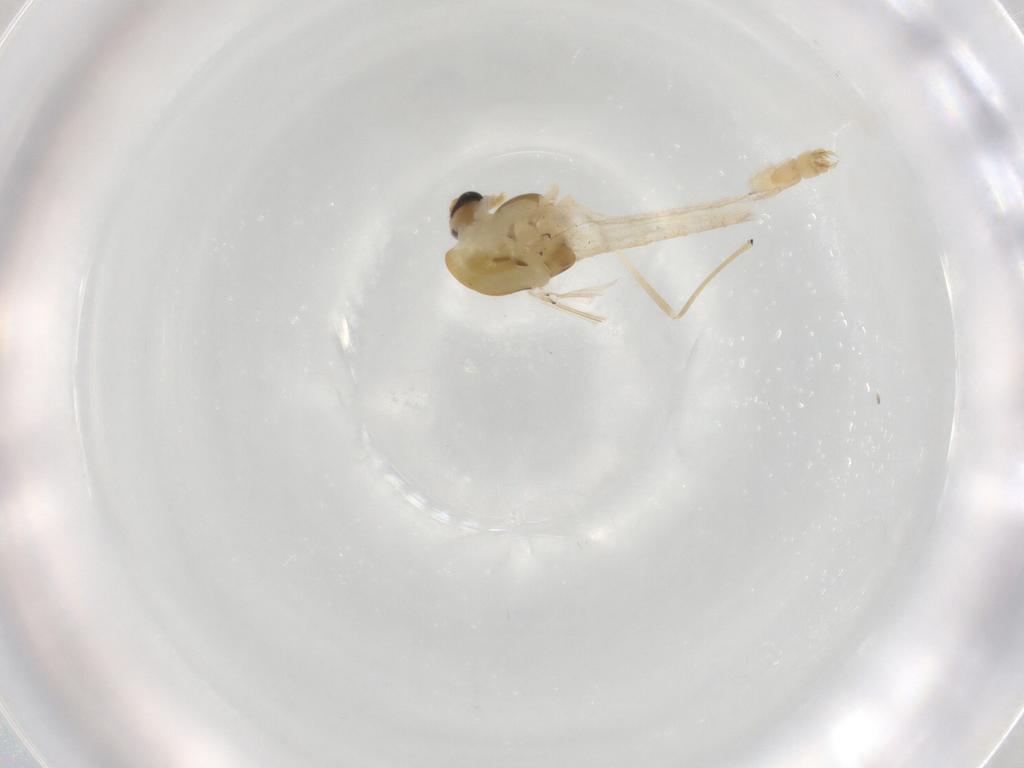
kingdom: Animalia
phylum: Arthropoda
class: Insecta
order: Diptera
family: Chironomidae
